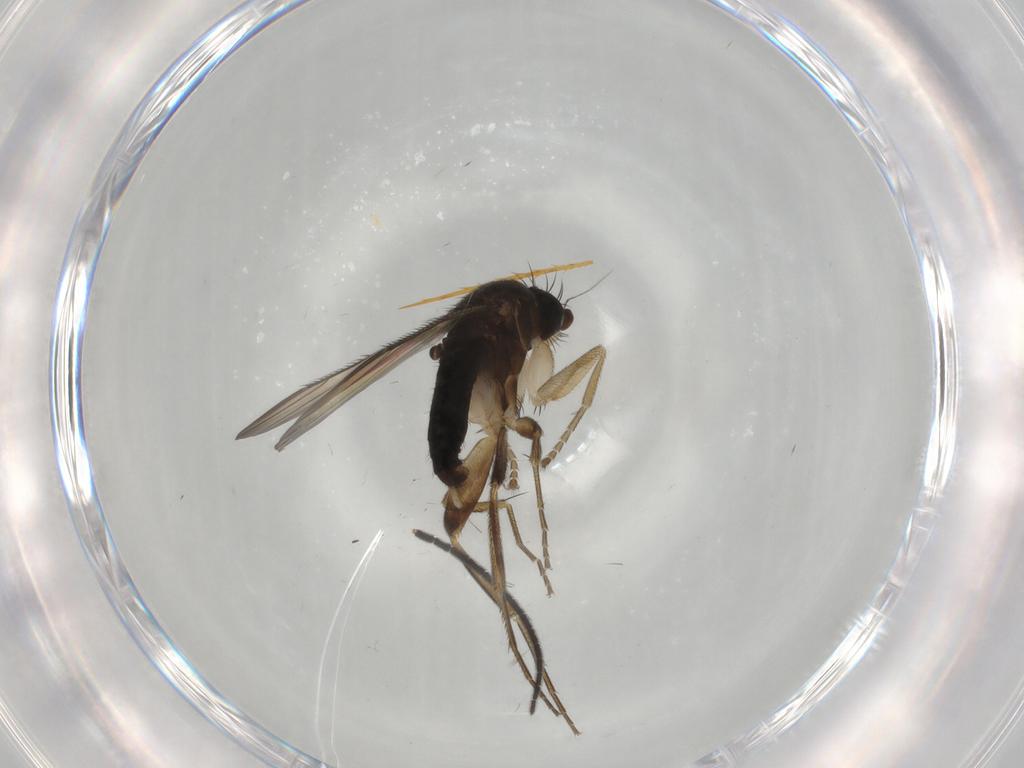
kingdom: Animalia
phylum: Arthropoda
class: Insecta
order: Diptera
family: Phoridae
